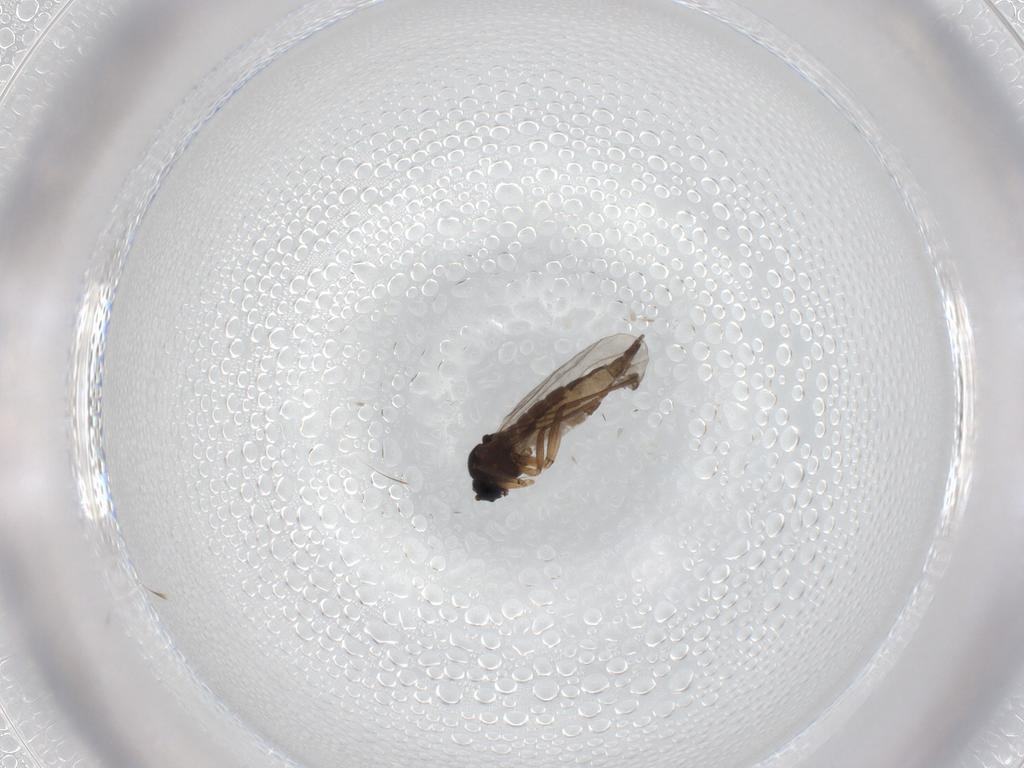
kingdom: Animalia
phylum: Arthropoda
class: Insecta
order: Diptera
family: Sciaridae
